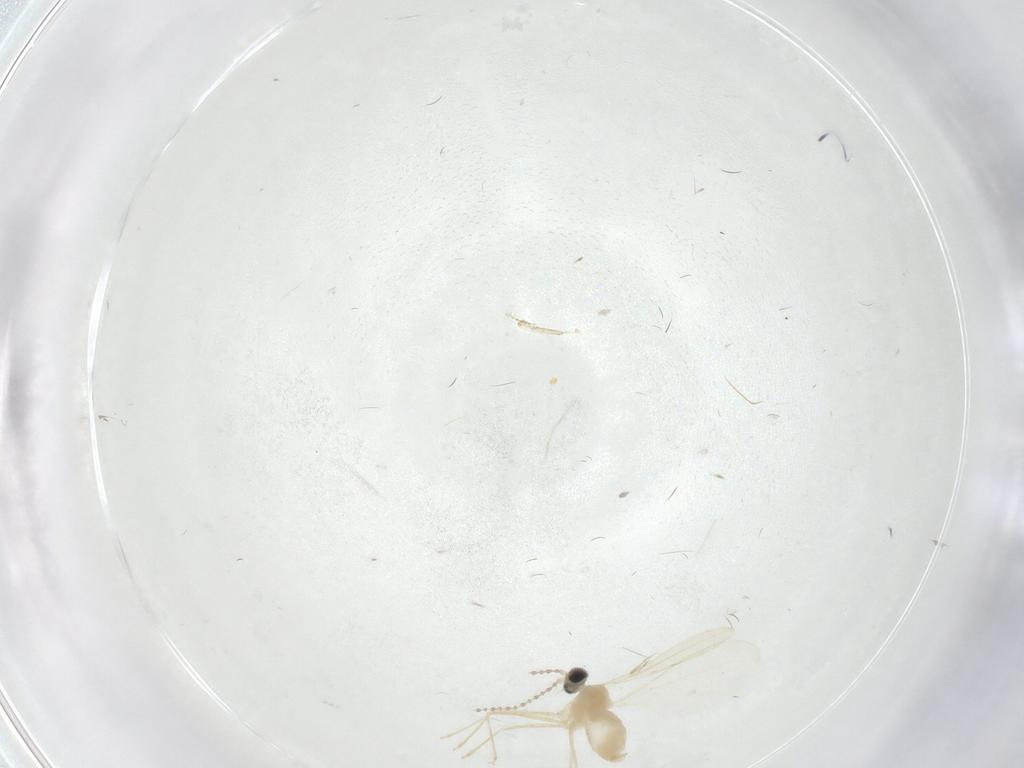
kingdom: Animalia
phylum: Arthropoda
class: Insecta
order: Diptera
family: Cecidomyiidae
